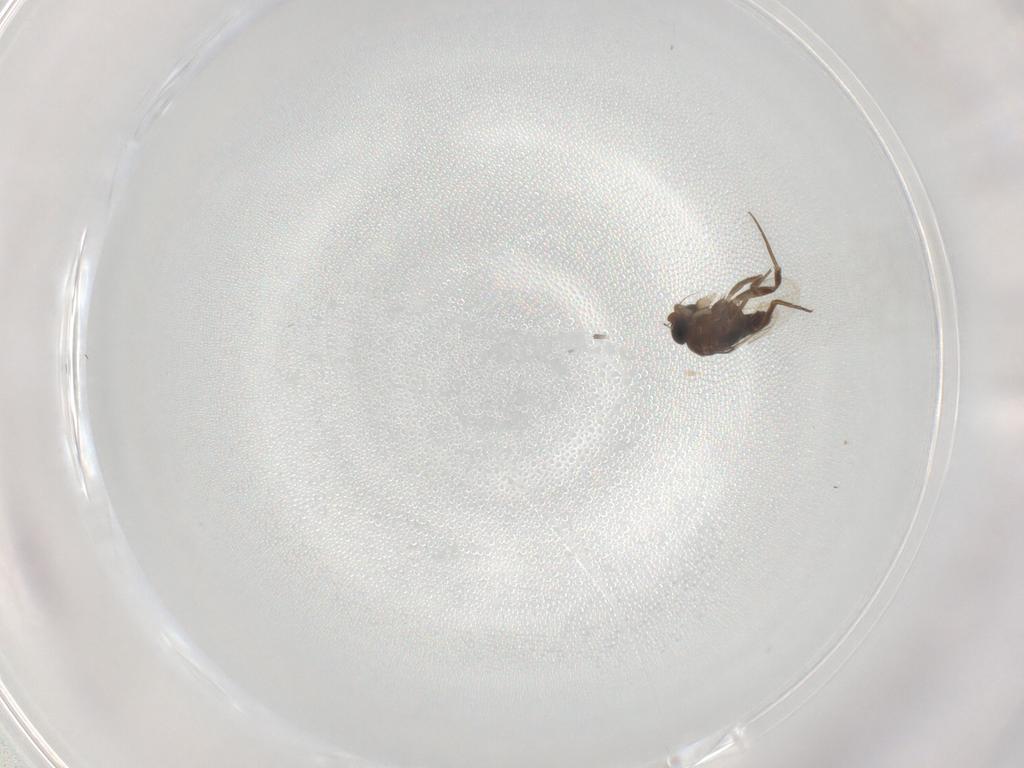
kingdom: Animalia
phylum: Arthropoda
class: Insecta
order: Diptera
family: Phoridae
